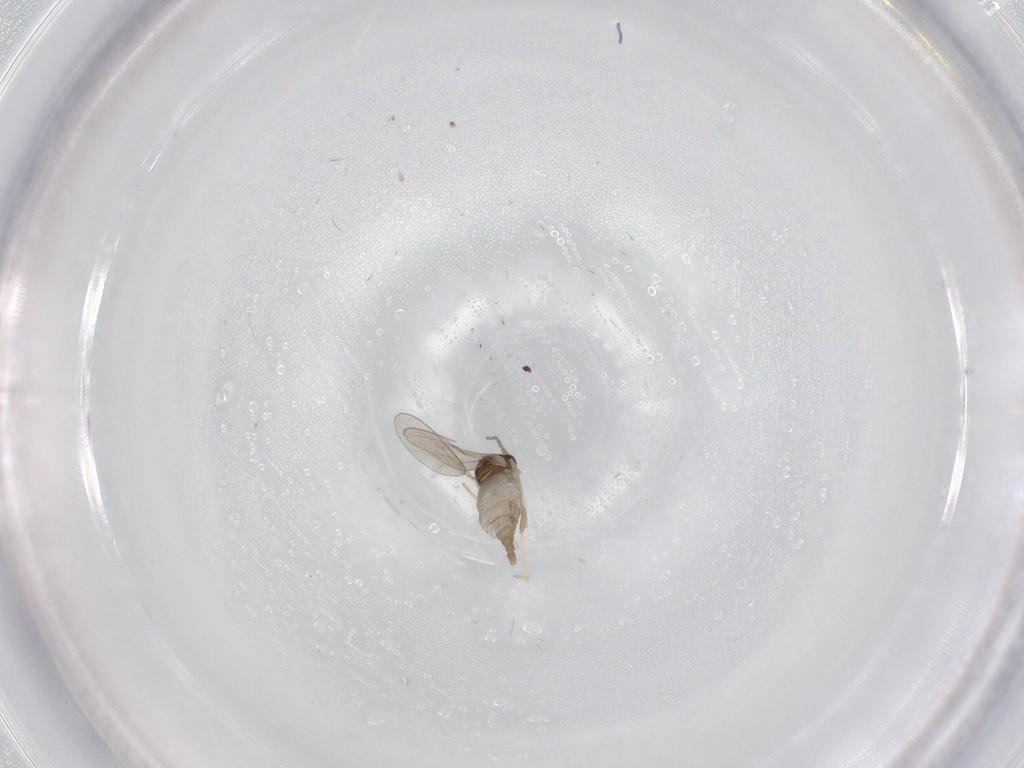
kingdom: Animalia
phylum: Arthropoda
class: Insecta
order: Diptera
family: Cecidomyiidae
